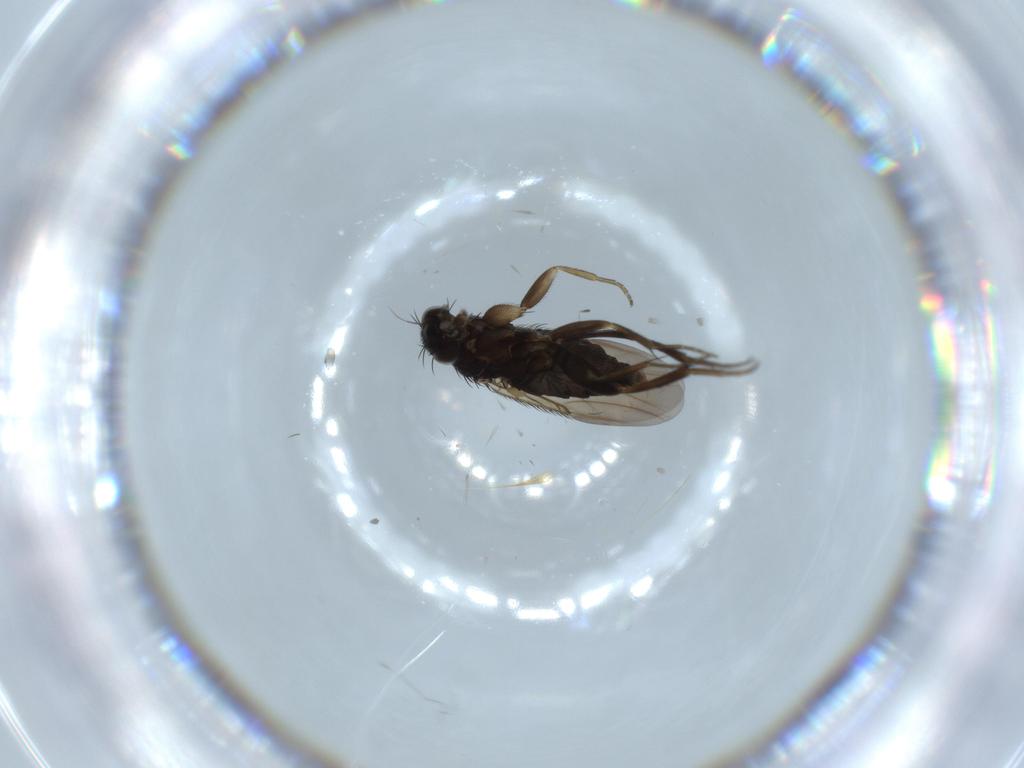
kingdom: Animalia
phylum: Arthropoda
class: Insecta
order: Diptera
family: Phoridae
